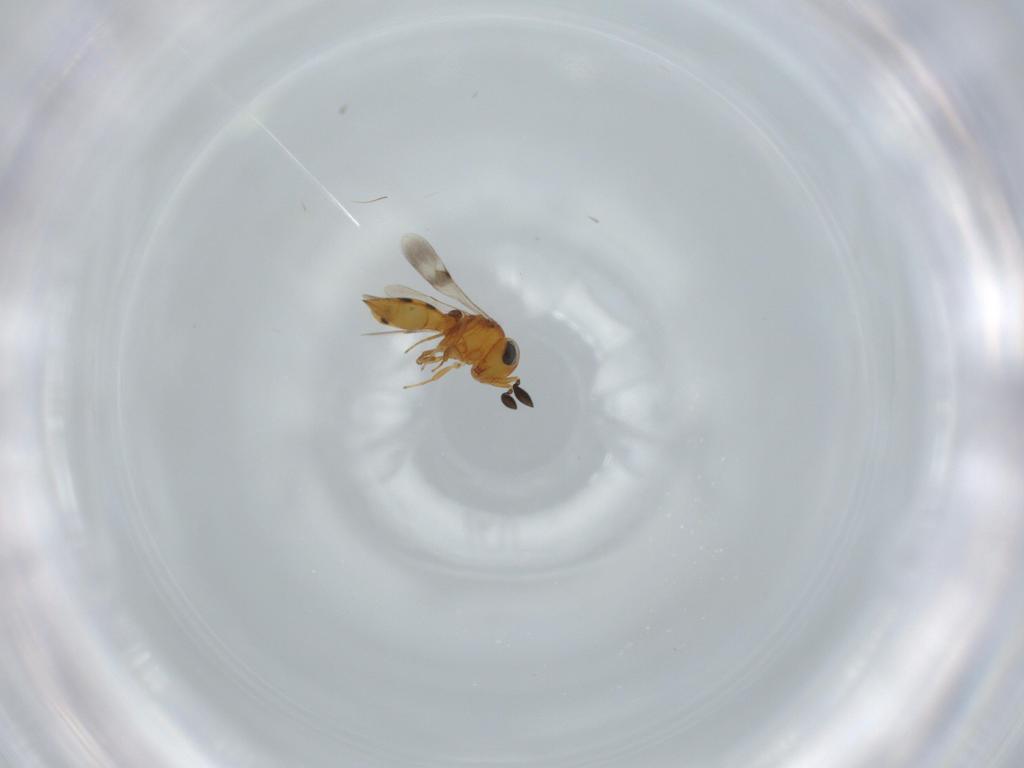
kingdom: Animalia
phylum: Arthropoda
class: Insecta
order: Hymenoptera
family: Scelionidae
